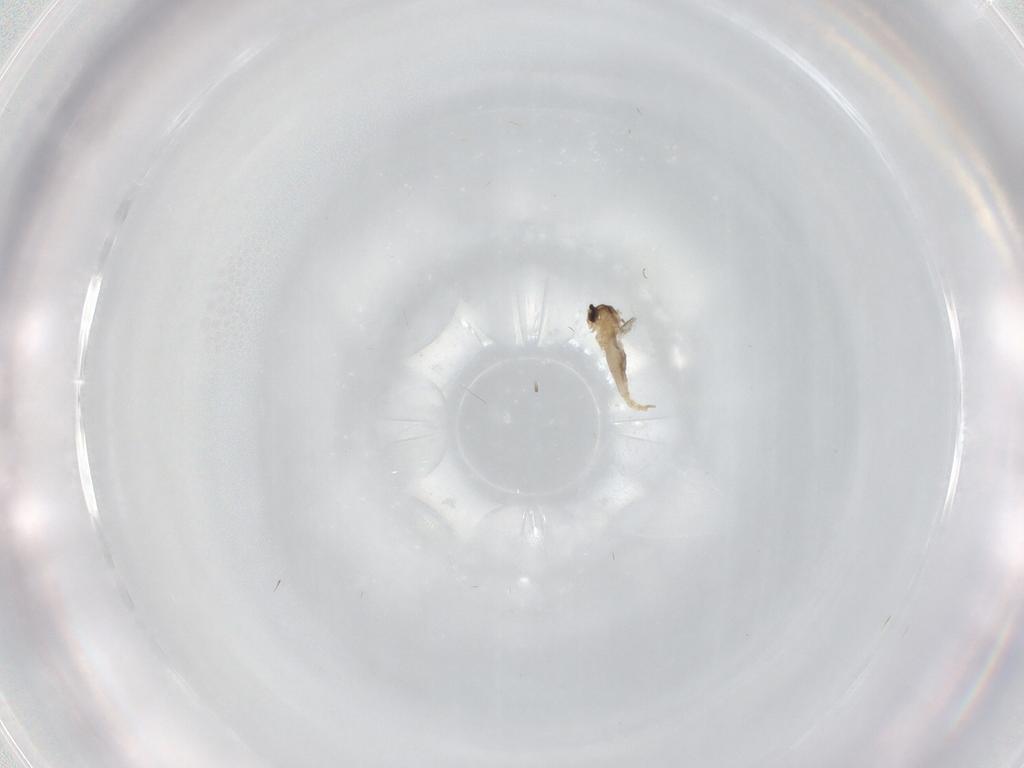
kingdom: Animalia
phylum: Arthropoda
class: Insecta
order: Diptera
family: Cecidomyiidae
